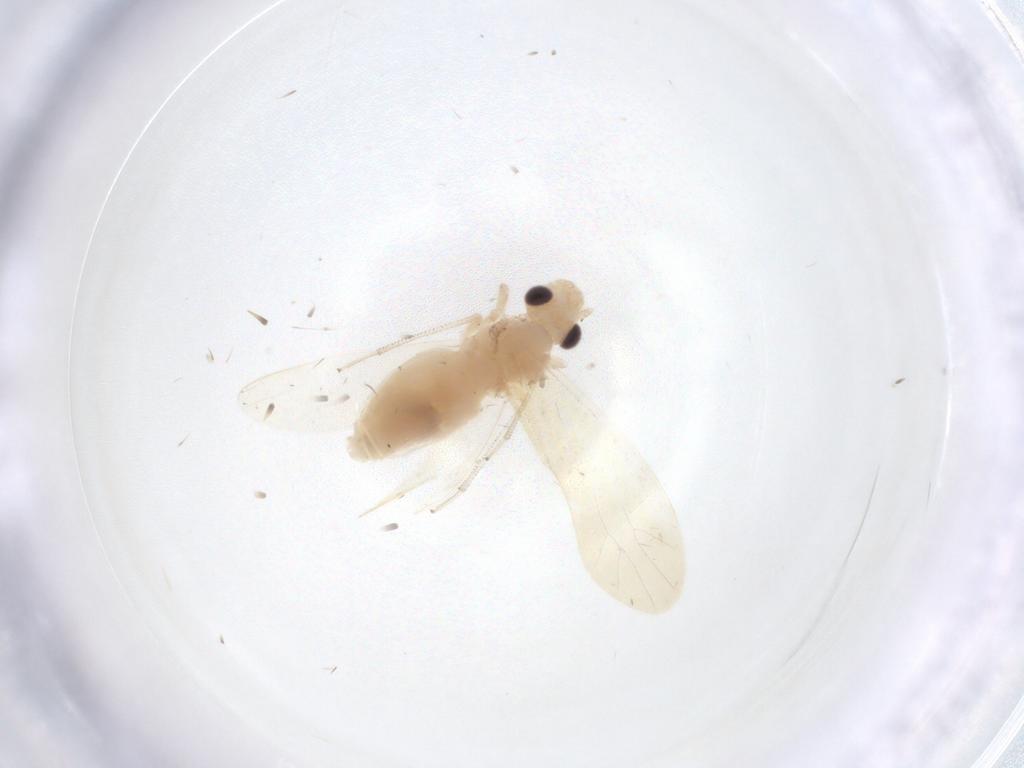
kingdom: Animalia
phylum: Arthropoda
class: Insecta
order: Psocodea
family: Caeciliusidae
